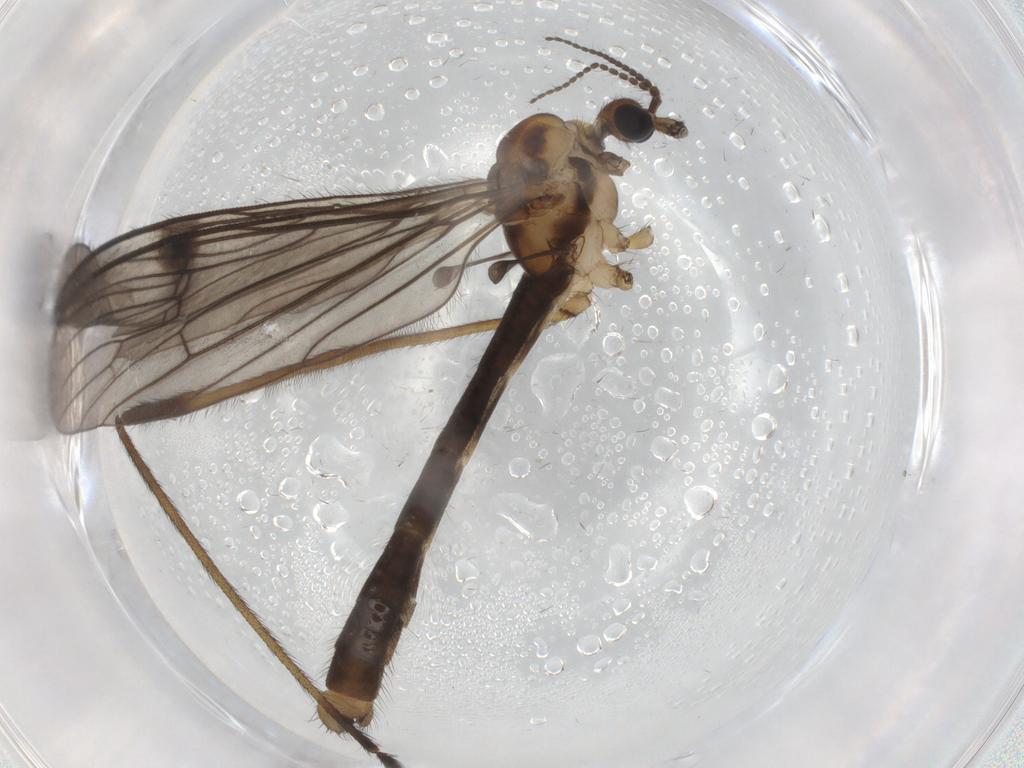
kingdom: Animalia
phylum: Arthropoda
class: Insecta
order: Diptera
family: Limoniidae
